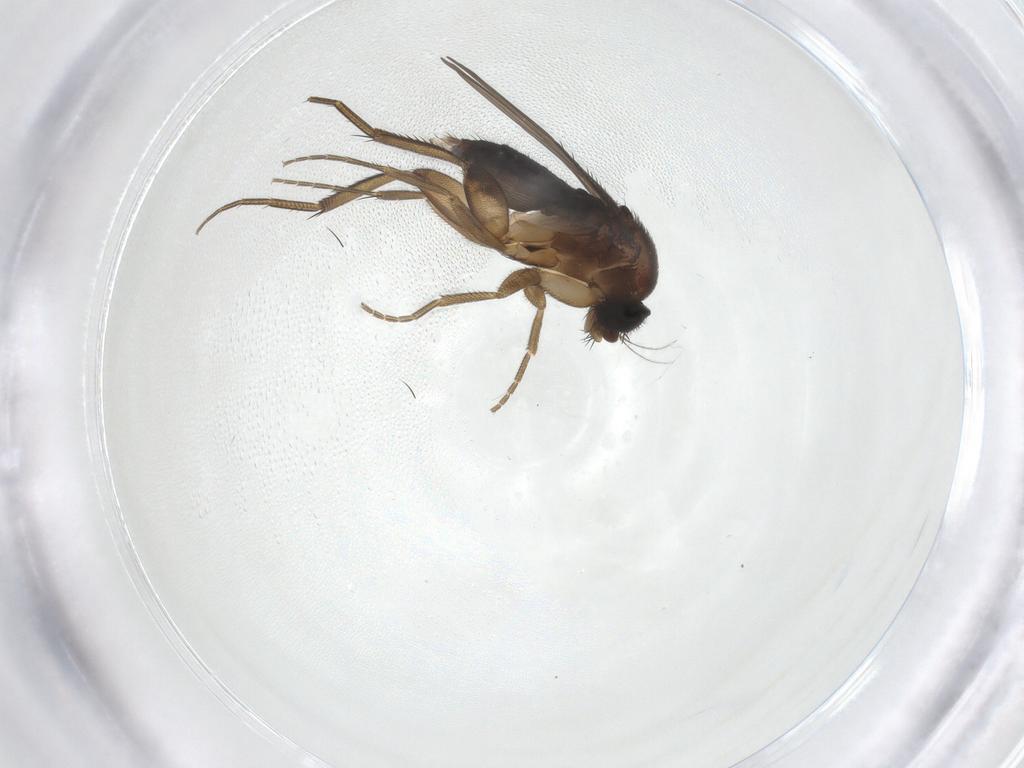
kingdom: Animalia
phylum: Arthropoda
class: Insecta
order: Diptera
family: Phoridae
